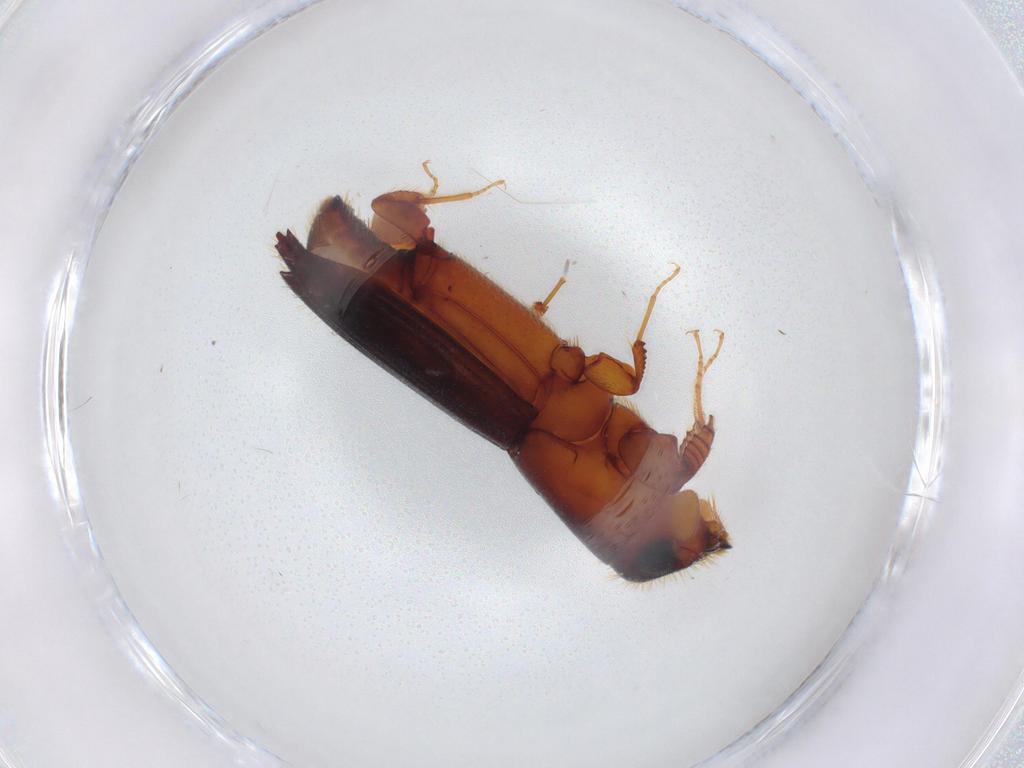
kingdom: Animalia
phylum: Arthropoda
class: Insecta
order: Coleoptera
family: Curculionidae
